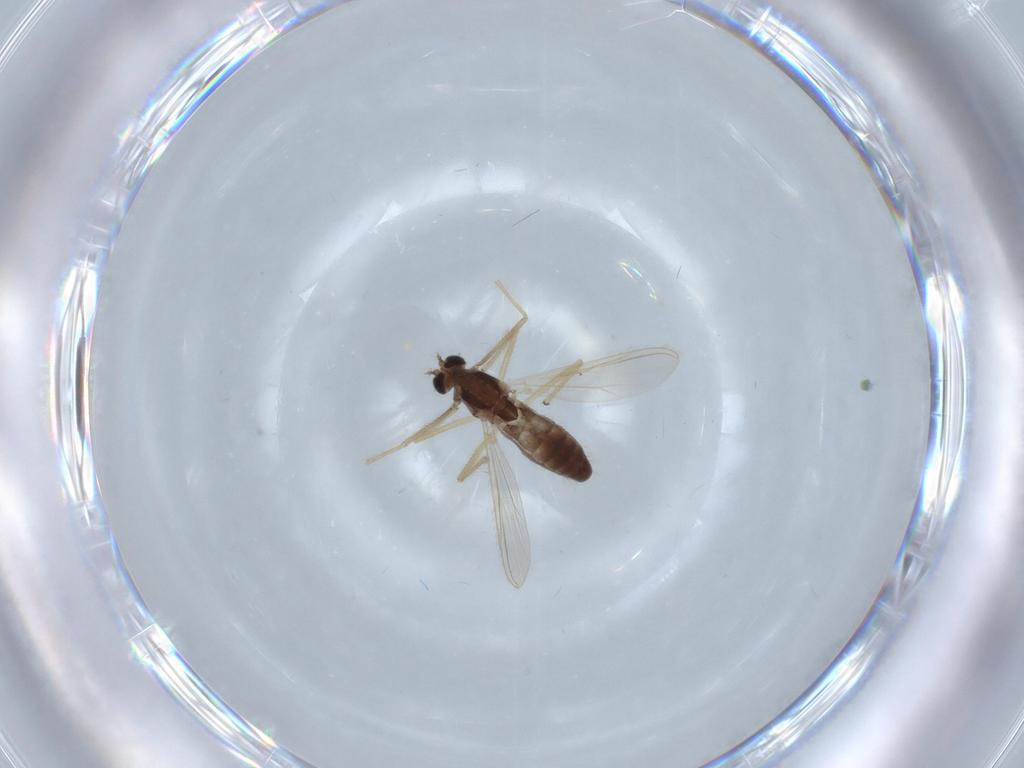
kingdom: Animalia
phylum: Arthropoda
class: Insecta
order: Diptera
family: Chironomidae
